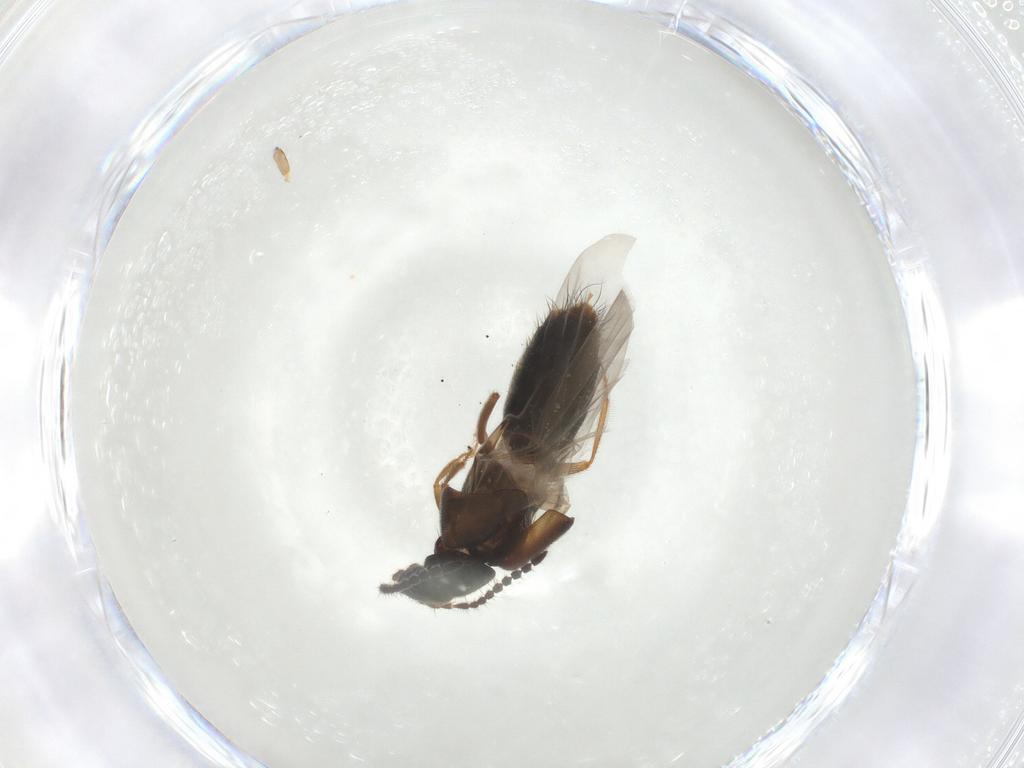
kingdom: Animalia
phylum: Arthropoda
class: Insecta
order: Coleoptera
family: Staphylinidae
